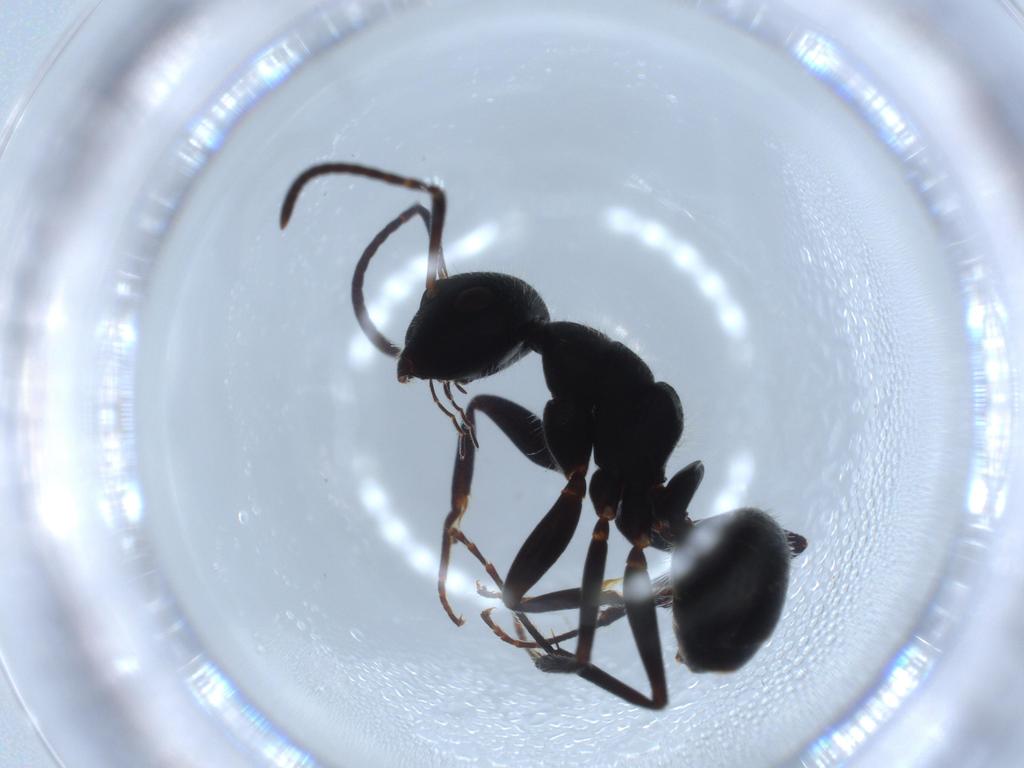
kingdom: Animalia
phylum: Arthropoda
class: Insecta
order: Hymenoptera
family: Formicidae
